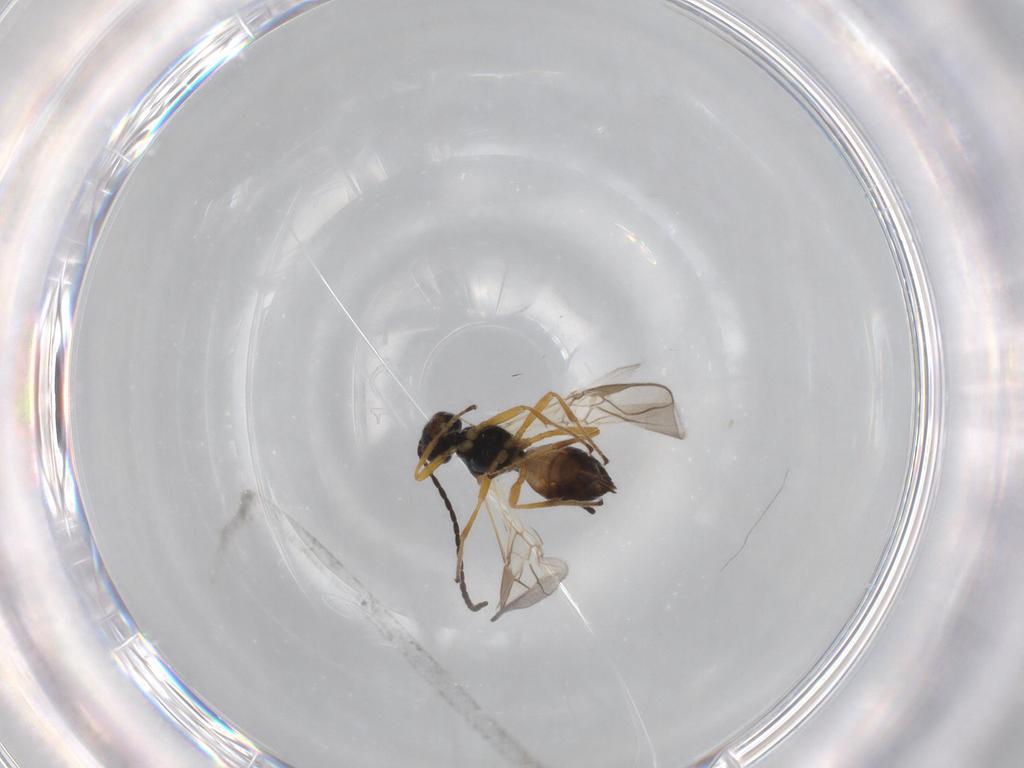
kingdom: Animalia
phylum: Arthropoda
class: Insecta
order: Hymenoptera
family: Braconidae
